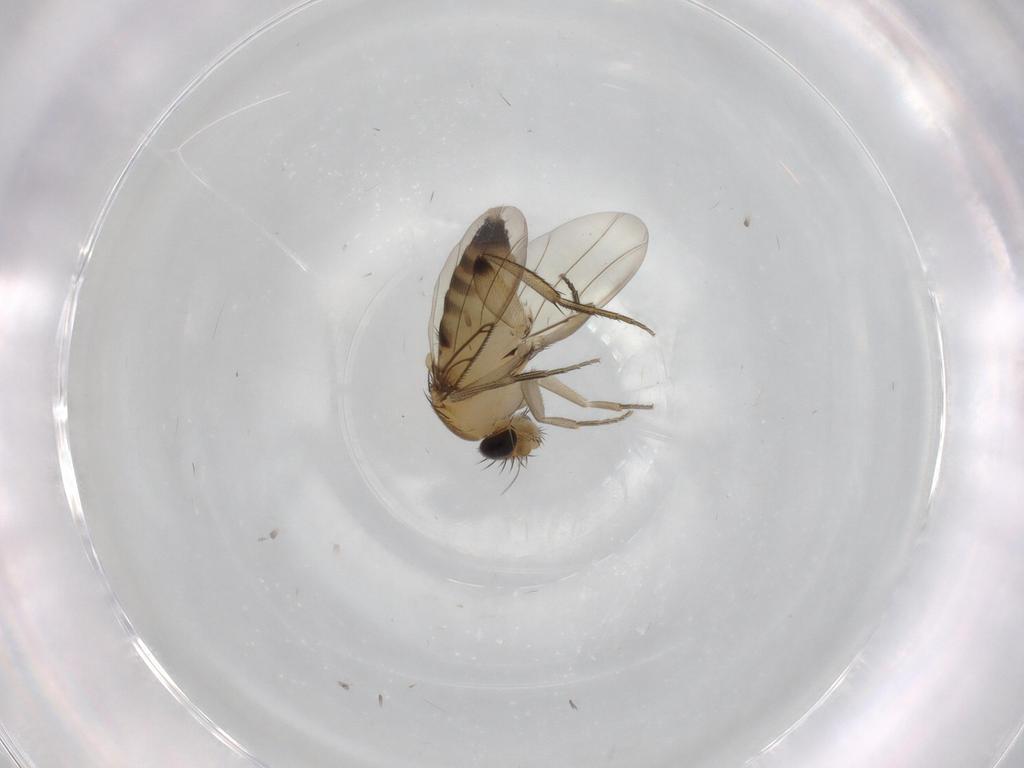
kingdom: Animalia
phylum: Arthropoda
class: Insecta
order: Diptera
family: Phoridae
